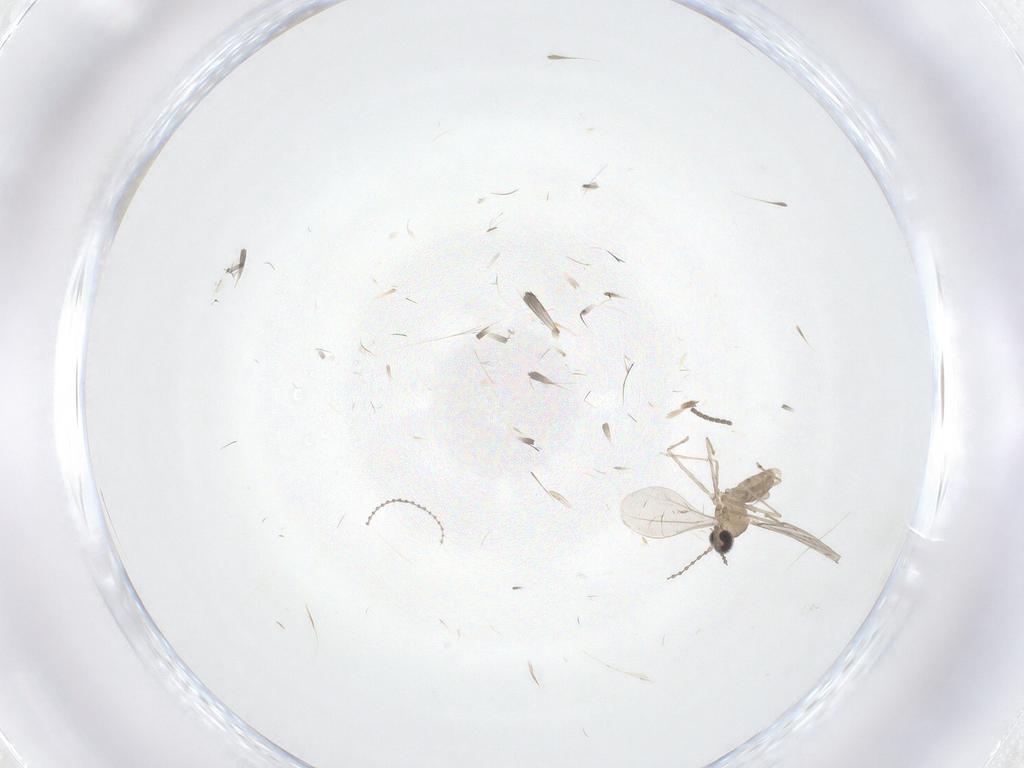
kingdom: Animalia
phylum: Arthropoda
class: Insecta
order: Diptera
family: Cecidomyiidae
